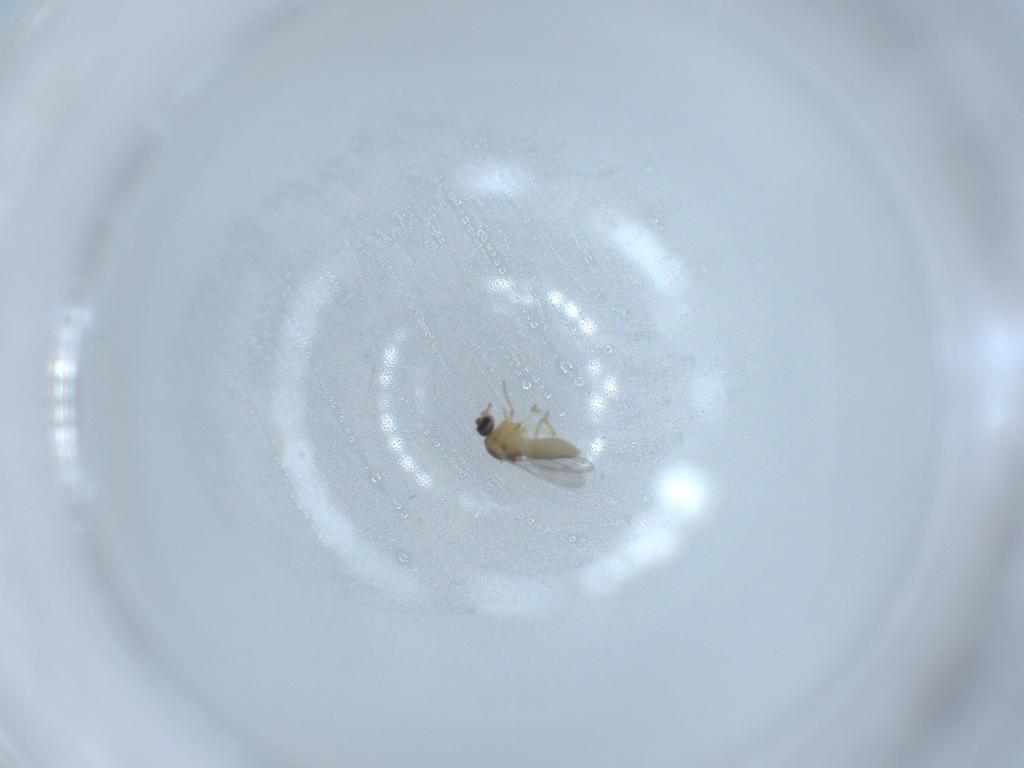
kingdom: Animalia
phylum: Arthropoda
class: Insecta
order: Diptera
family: Ceratopogonidae
